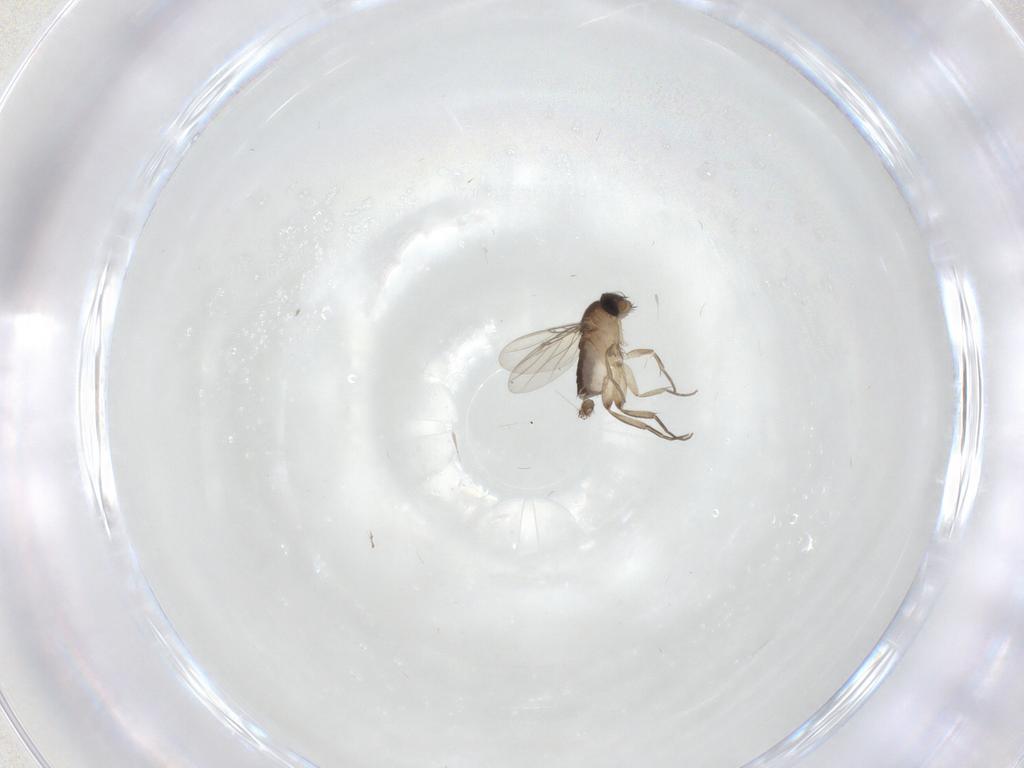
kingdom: Animalia
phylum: Arthropoda
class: Insecta
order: Diptera
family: Phoridae
